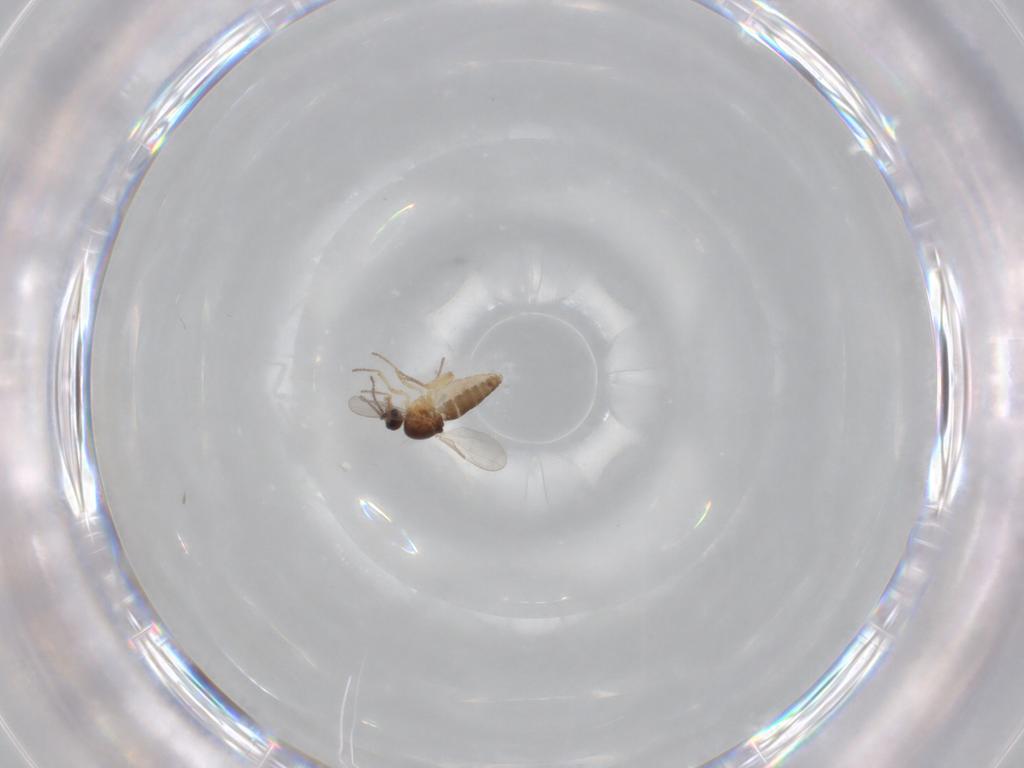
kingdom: Animalia
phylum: Arthropoda
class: Insecta
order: Diptera
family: Ceratopogonidae
